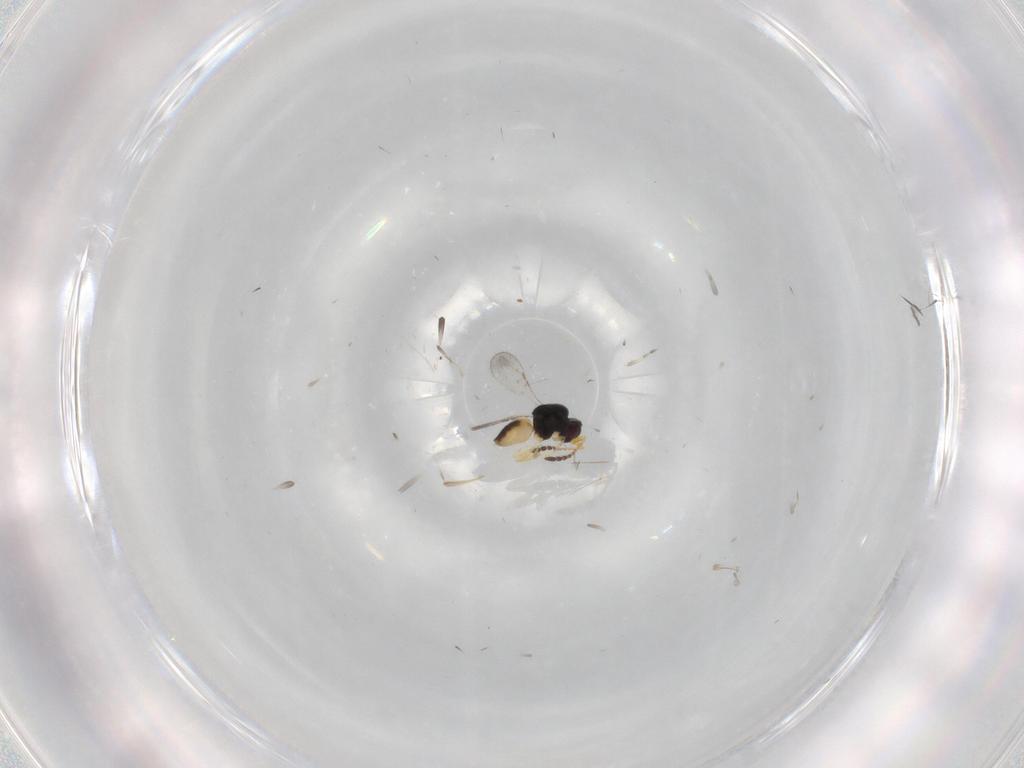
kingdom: Animalia
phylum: Arthropoda
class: Insecta
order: Hymenoptera
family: Ceraphronidae
